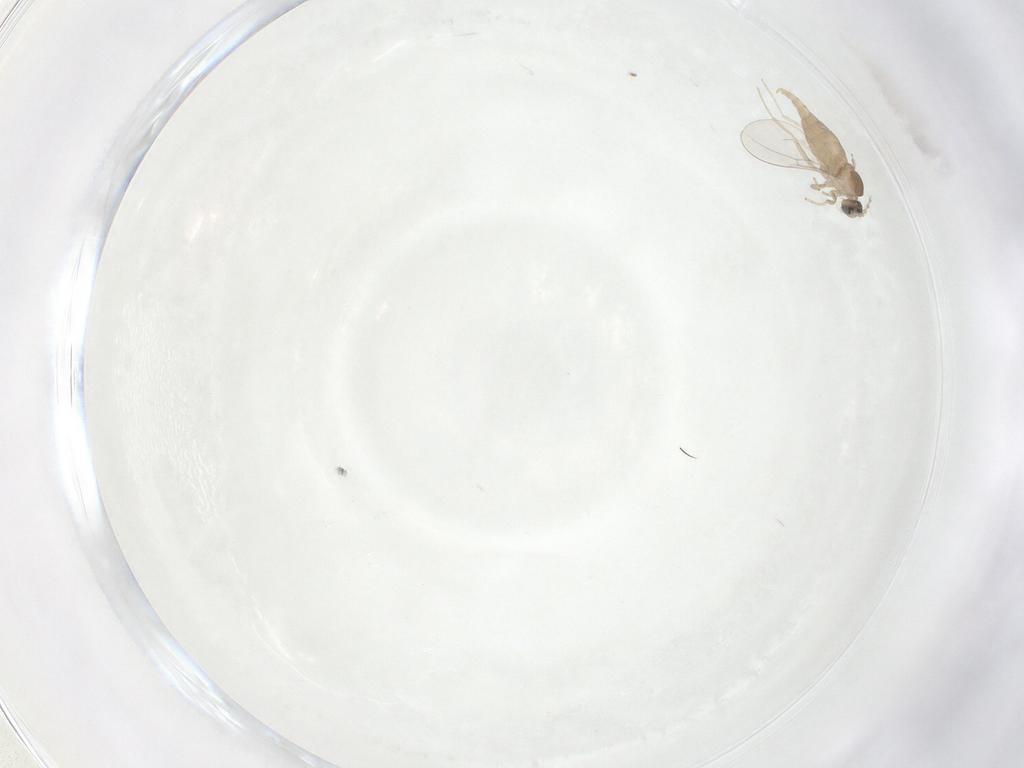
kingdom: Animalia
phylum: Arthropoda
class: Insecta
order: Diptera
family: Cecidomyiidae
